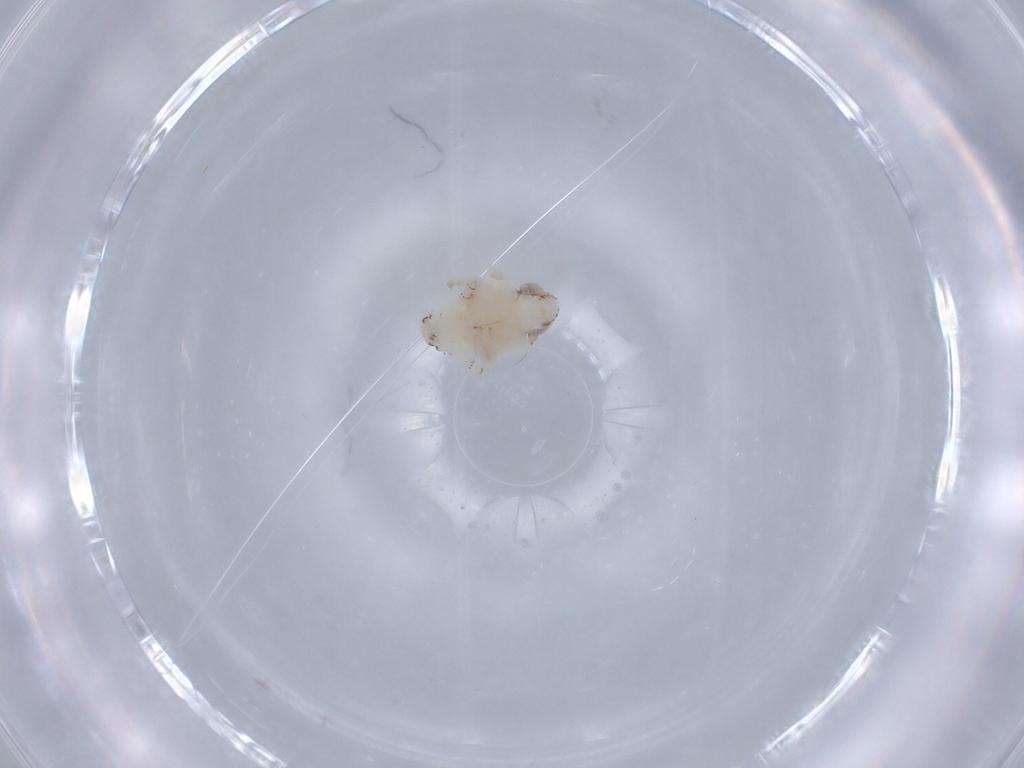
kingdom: Animalia
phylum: Arthropoda
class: Insecta
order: Hemiptera
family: Nogodinidae
